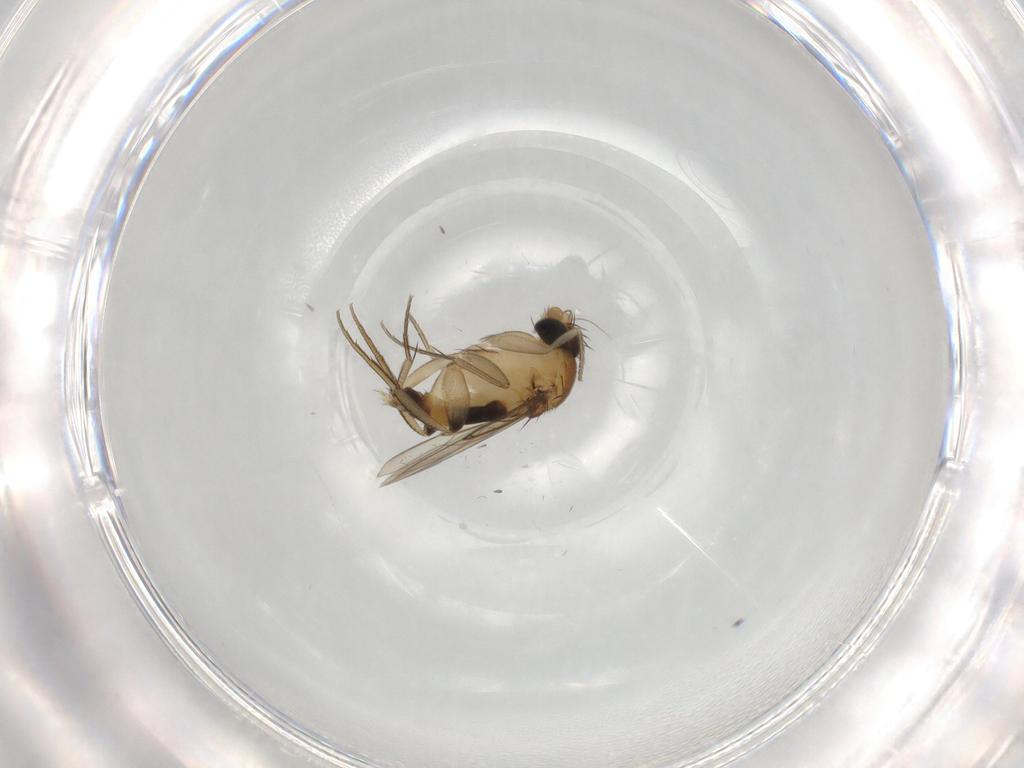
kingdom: Animalia
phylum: Arthropoda
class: Insecta
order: Diptera
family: Phoridae
